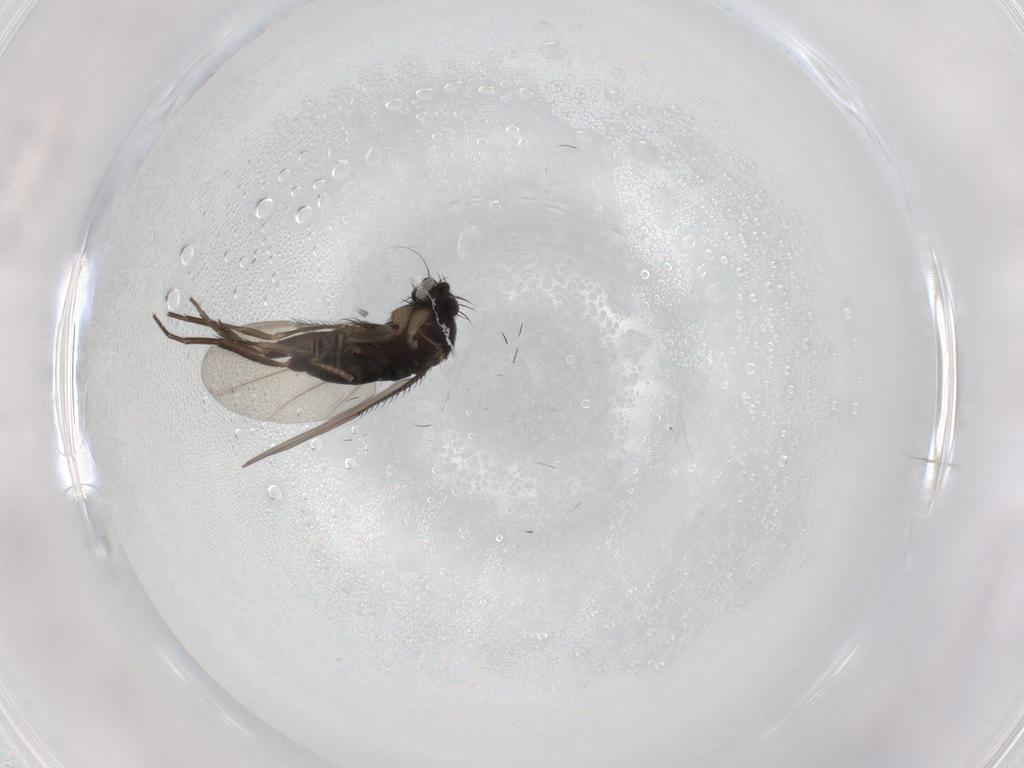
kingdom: Animalia
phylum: Arthropoda
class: Insecta
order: Diptera
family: Phoridae
